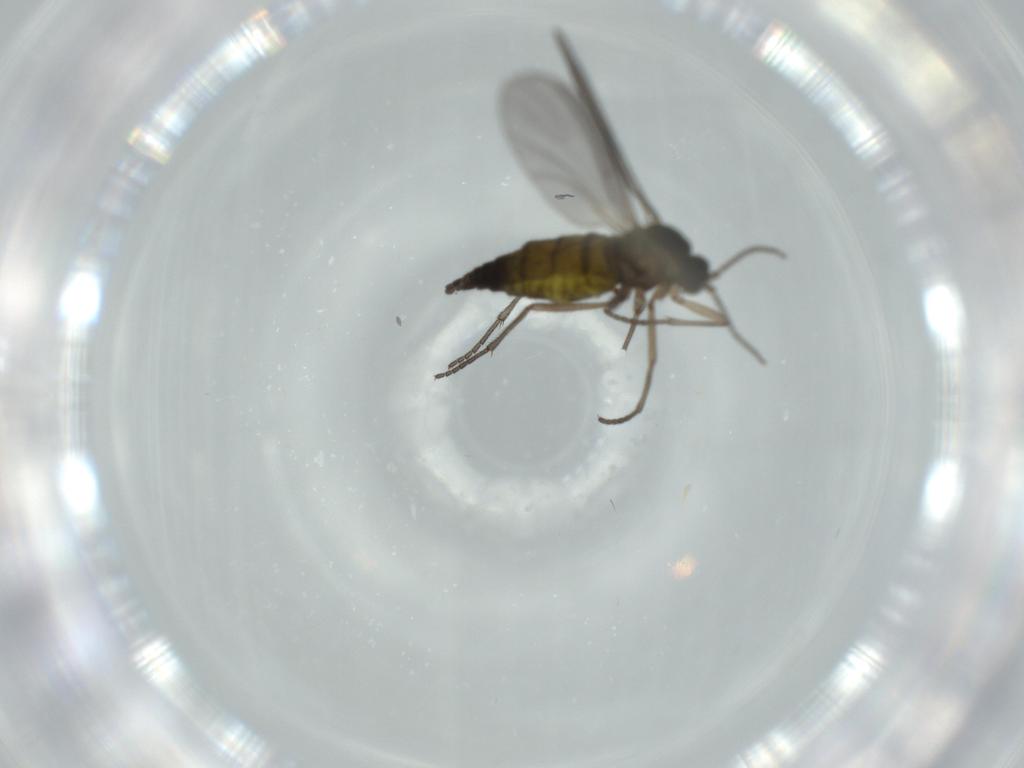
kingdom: Animalia
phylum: Arthropoda
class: Insecta
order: Diptera
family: Sciaridae
